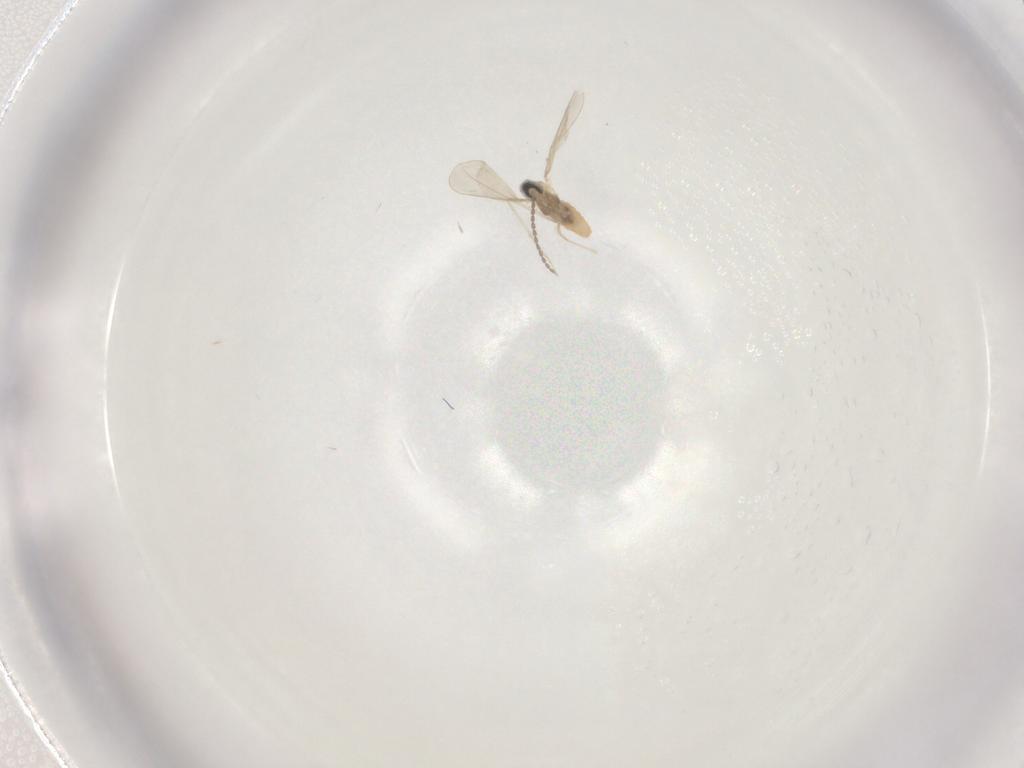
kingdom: Animalia
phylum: Arthropoda
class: Insecta
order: Diptera
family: Cecidomyiidae
